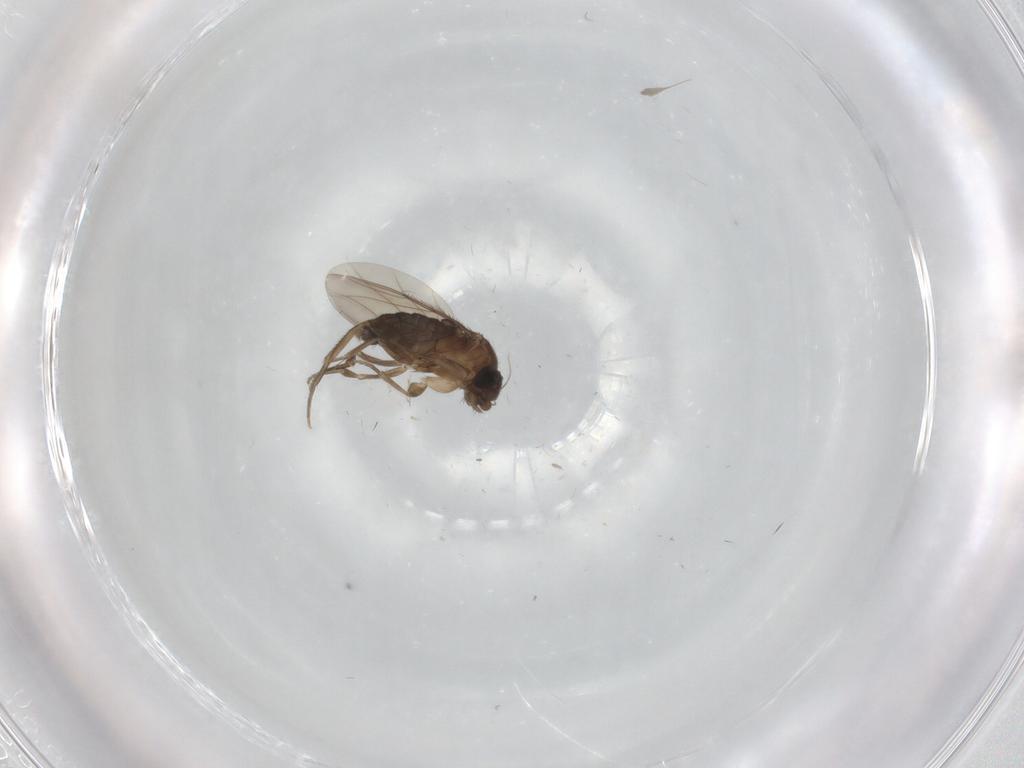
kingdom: Animalia
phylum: Arthropoda
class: Insecta
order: Diptera
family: Phoridae
